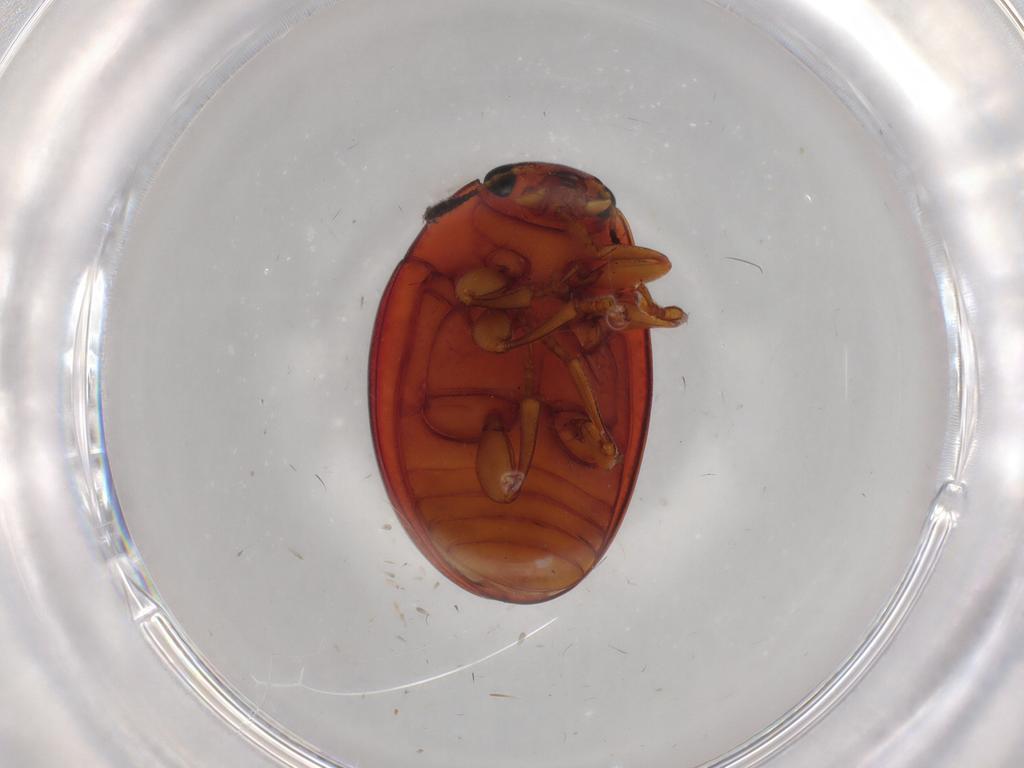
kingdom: Animalia
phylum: Arthropoda
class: Insecta
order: Coleoptera
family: Erotylidae
